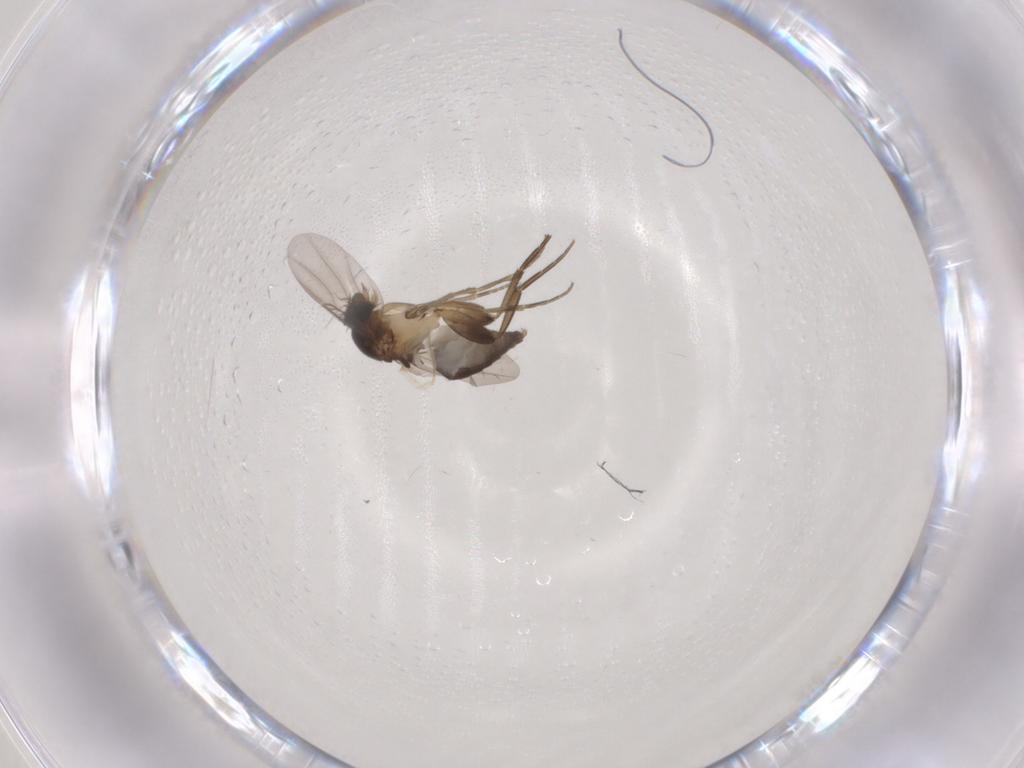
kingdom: Animalia
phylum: Arthropoda
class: Insecta
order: Diptera
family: Phoridae
